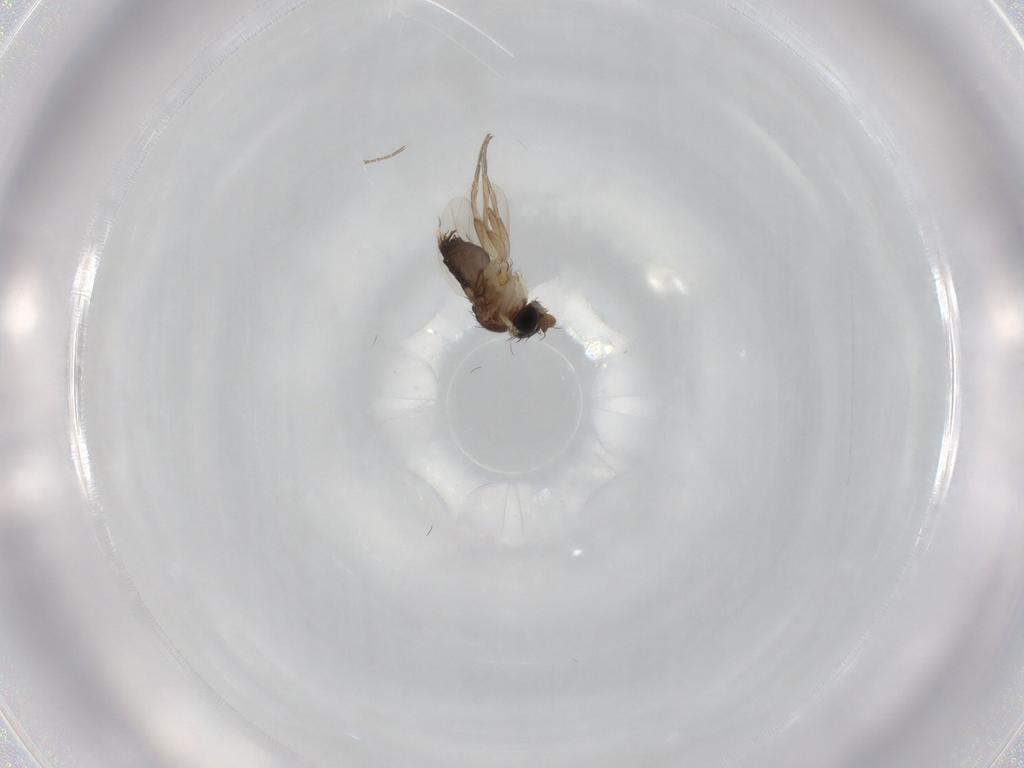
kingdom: Animalia
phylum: Arthropoda
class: Insecta
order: Diptera
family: Phoridae
